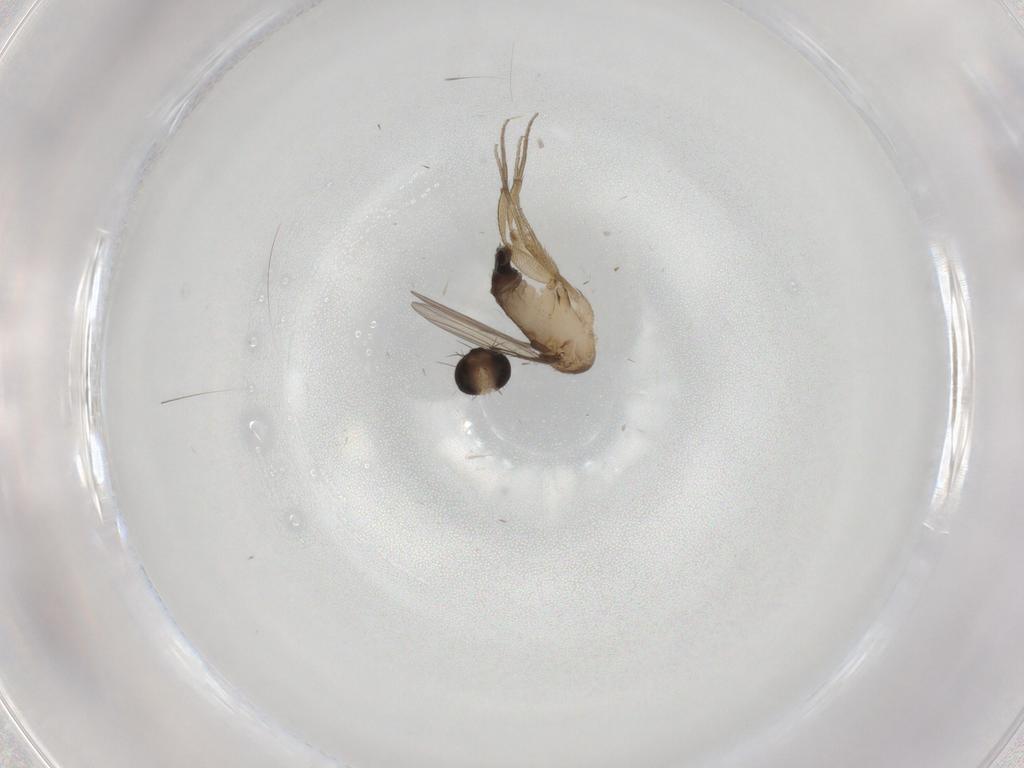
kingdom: Animalia
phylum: Arthropoda
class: Insecta
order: Diptera
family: Phoridae
